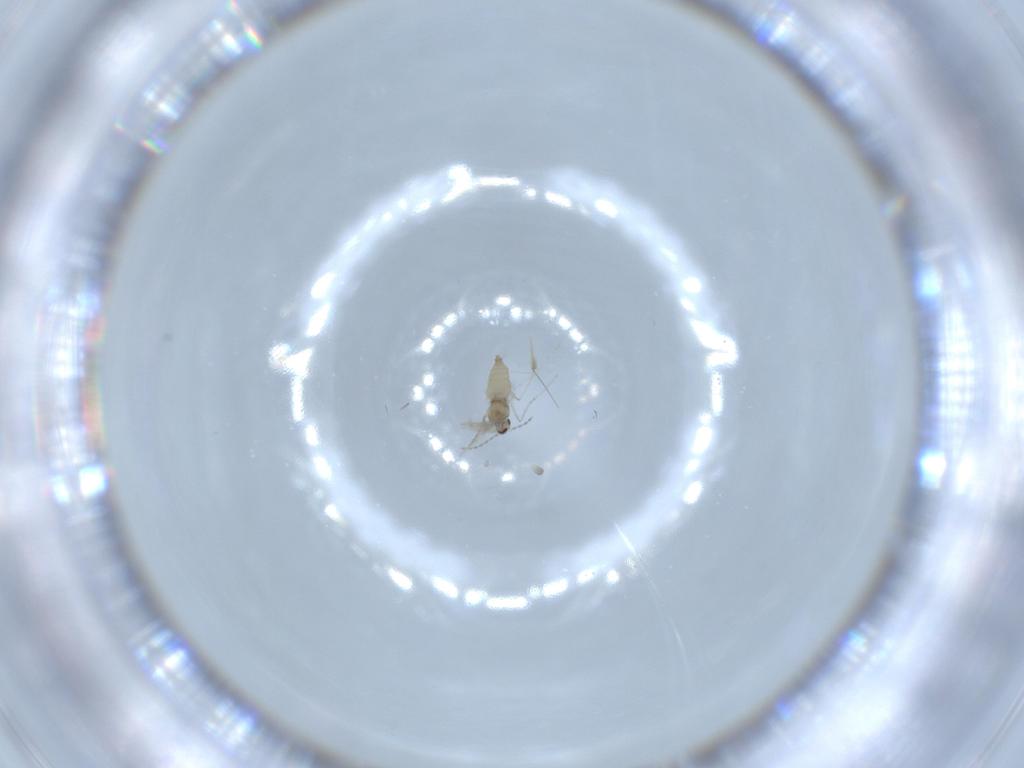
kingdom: Animalia
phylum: Arthropoda
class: Insecta
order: Diptera
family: Cecidomyiidae
